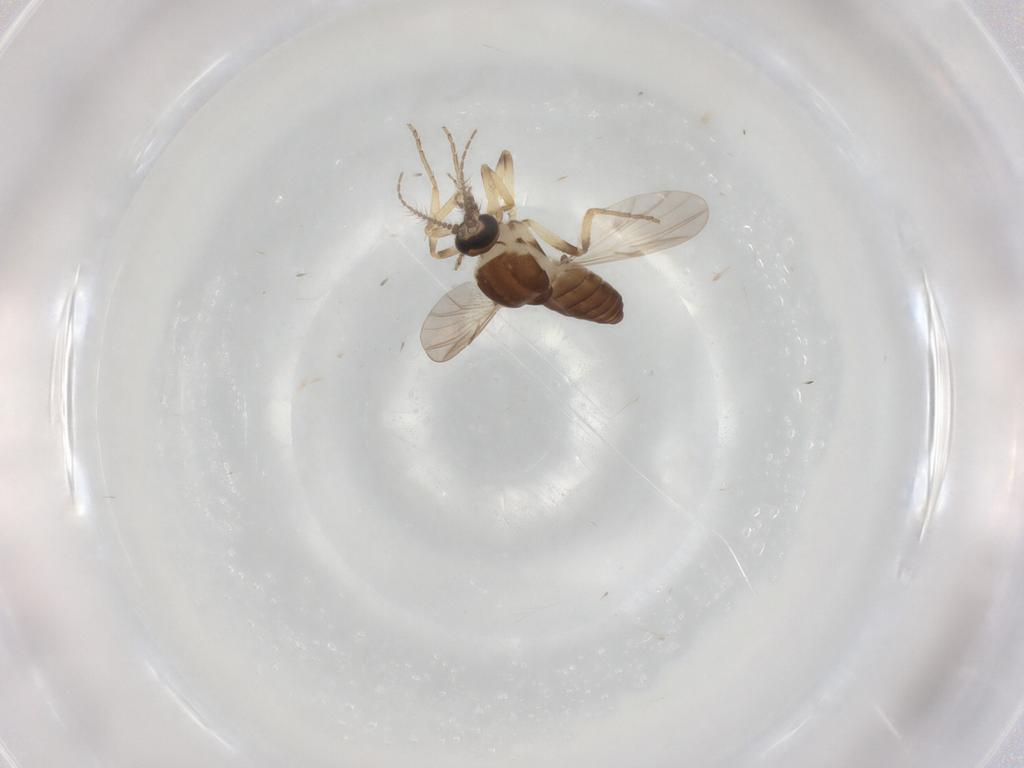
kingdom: Animalia
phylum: Arthropoda
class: Insecta
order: Diptera
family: Ceratopogonidae
